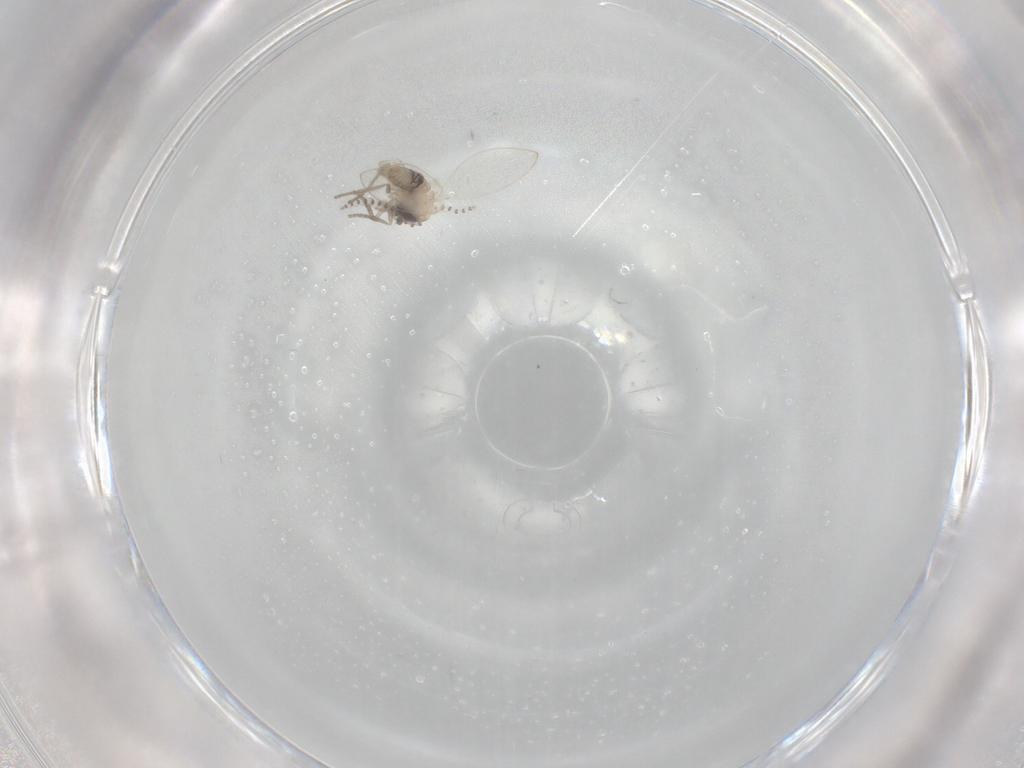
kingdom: Animalia
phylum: Arthropoda
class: Insecta
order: Diptera
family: Psychodidae
